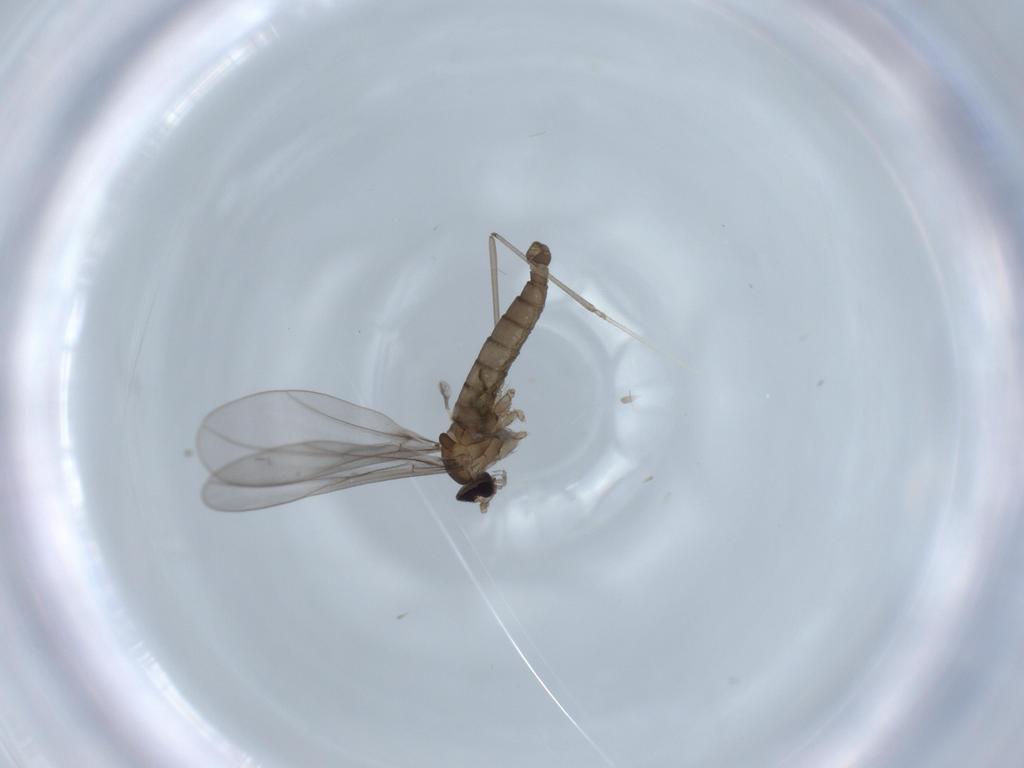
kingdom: Animalia
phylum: Arthropoda
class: Insecta
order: Diptera
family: Cecidomyiidae
